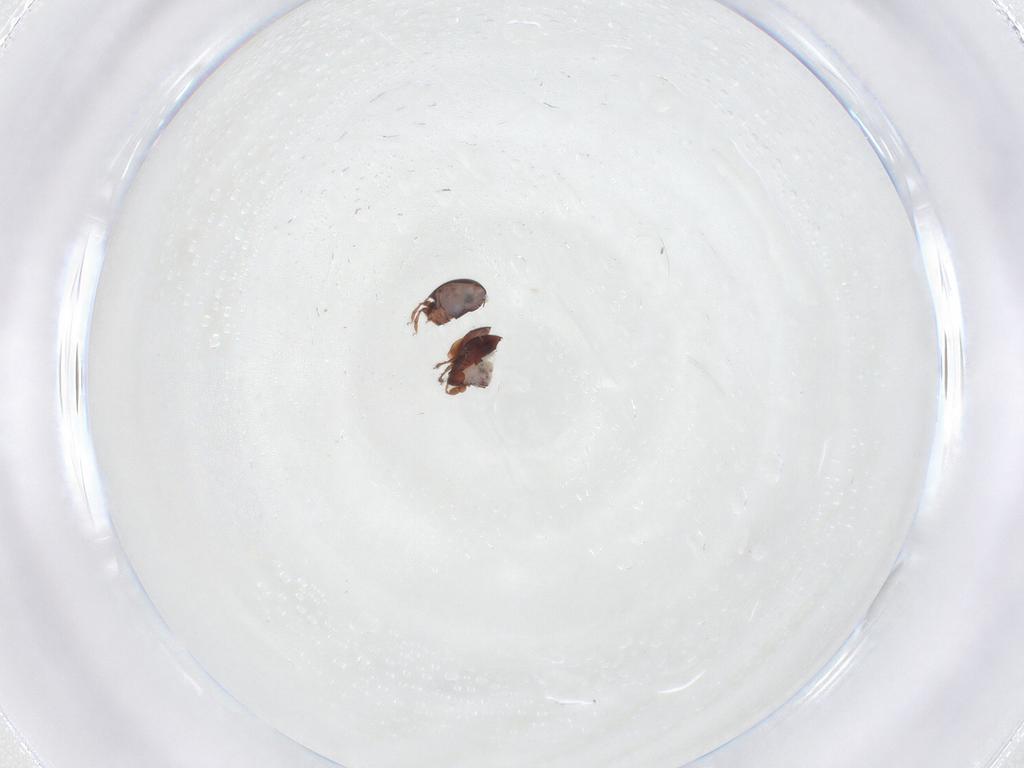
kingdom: Animalia
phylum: Arthropoda
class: Arachnida
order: Sarcoptiformes
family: Ceratozetidae
